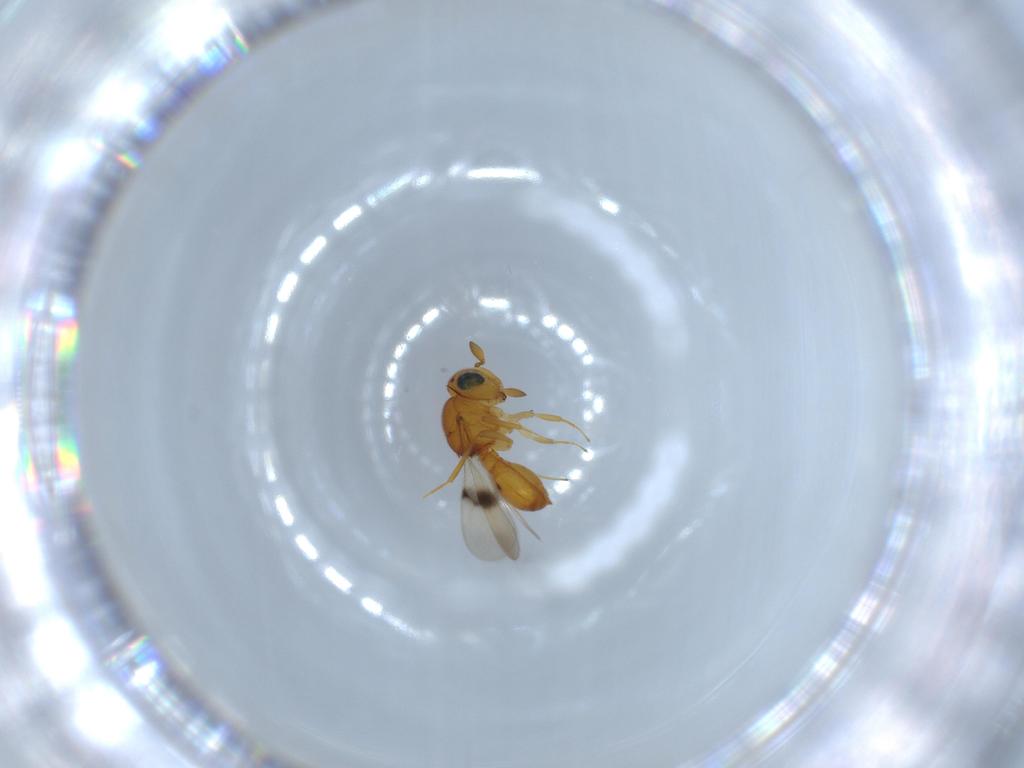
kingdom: Animalia
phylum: Arthropoda
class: Insecta
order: Hymenoptera
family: Scelionidae
